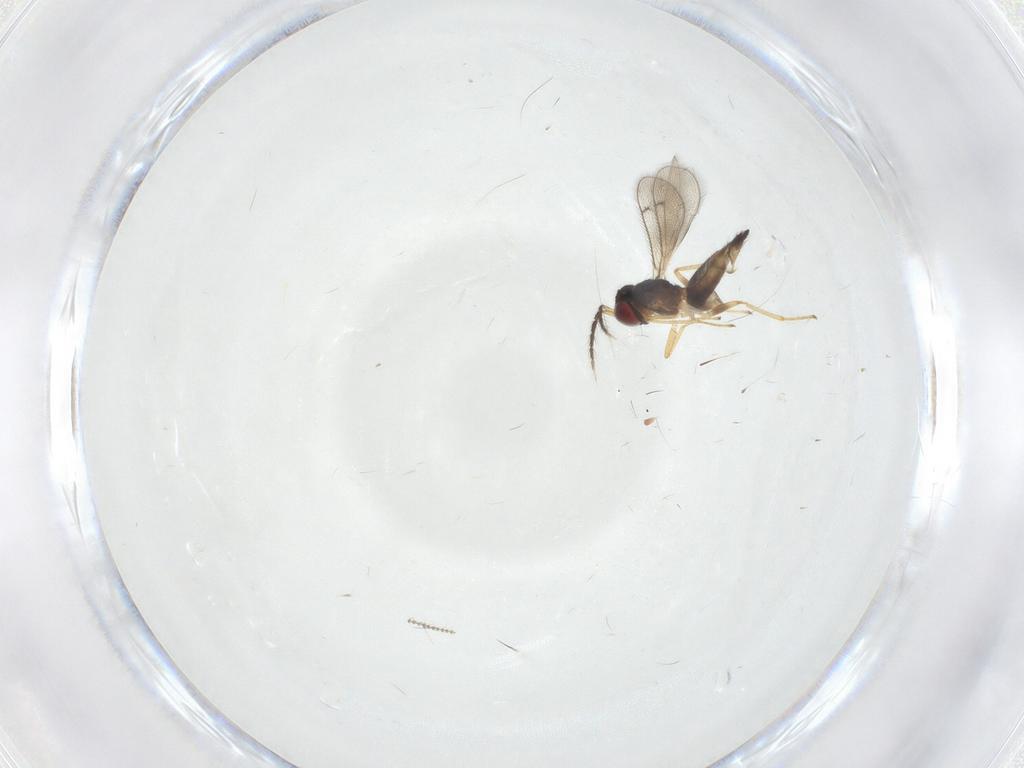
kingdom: Animalia
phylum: Arthropoda
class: Insecta
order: Hymenoptera
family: Eulophidae
